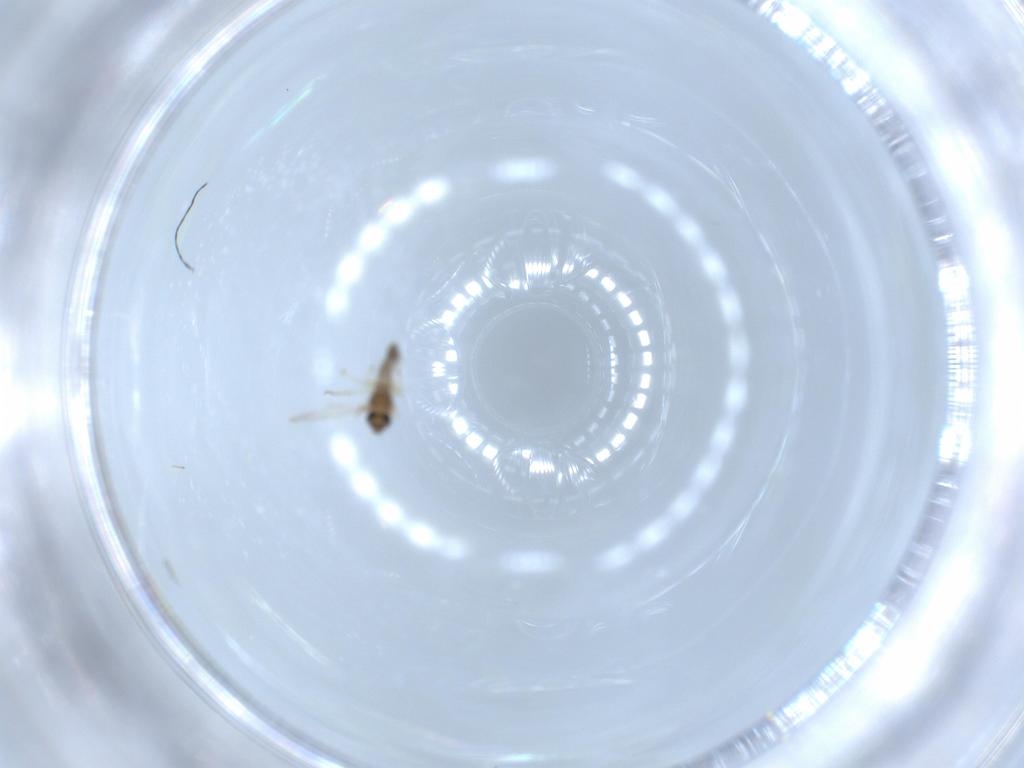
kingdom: Animalia
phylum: Arthropoda
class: Insecta
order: Diptera
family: Chironomidae
